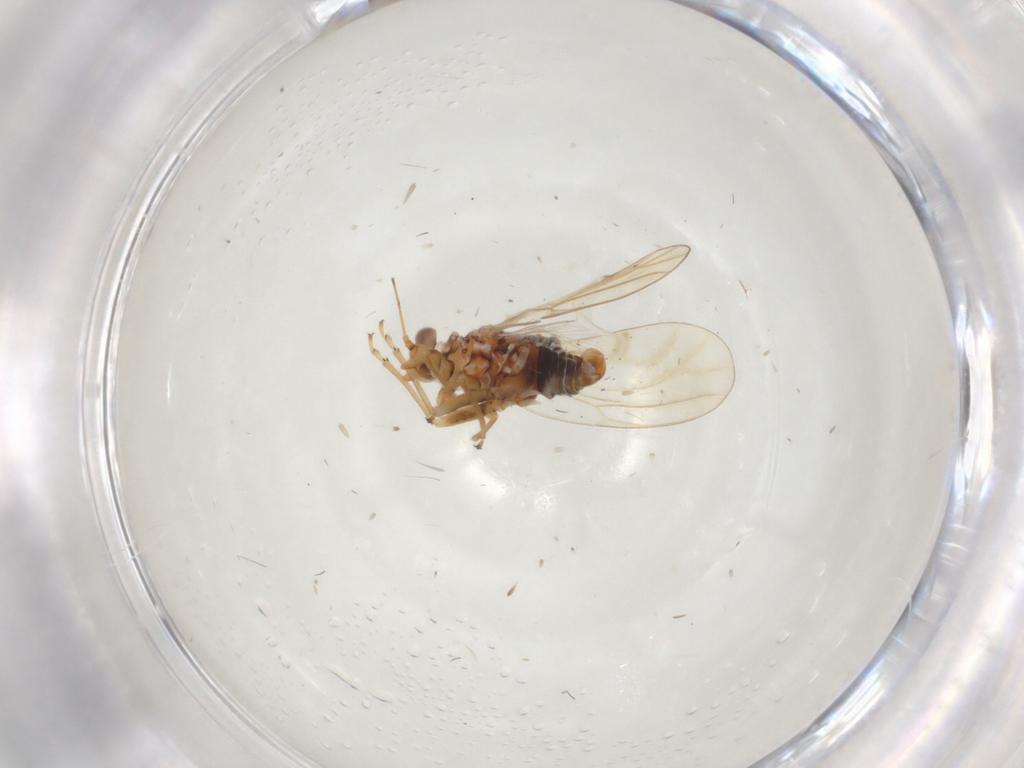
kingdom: Animalia
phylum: Arthropoda
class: Insecta
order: Hemiptera
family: Psyllidae
